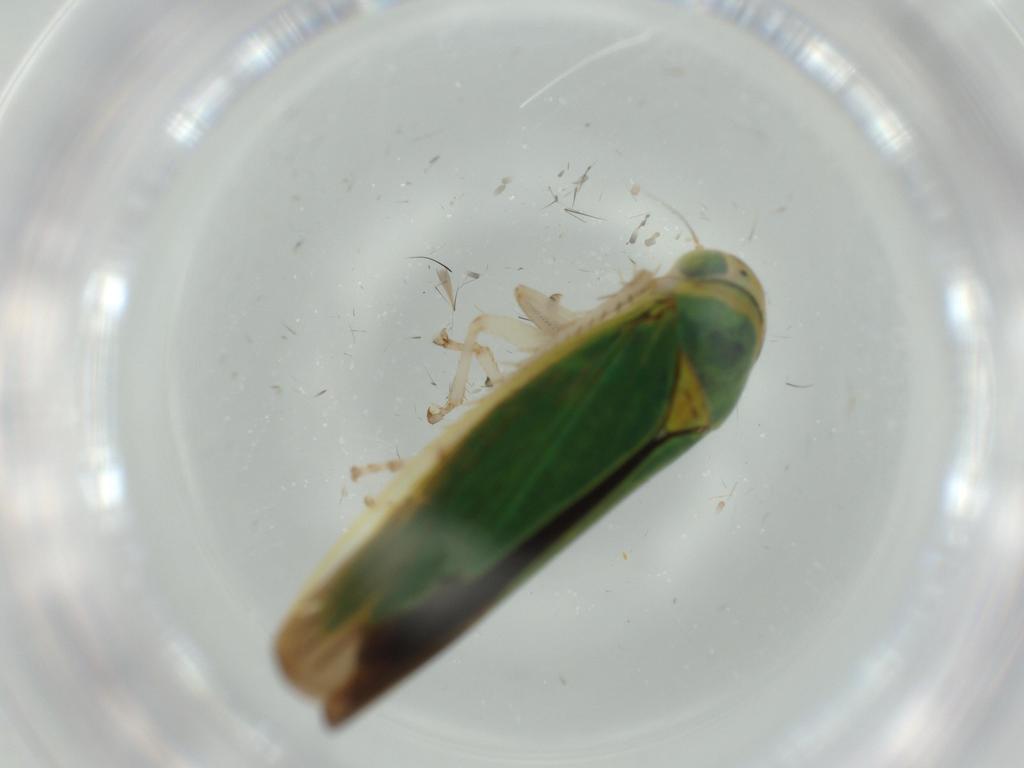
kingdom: Animalia
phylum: Arthropoda
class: Insecta
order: Hemiptera
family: Cicadellidae
